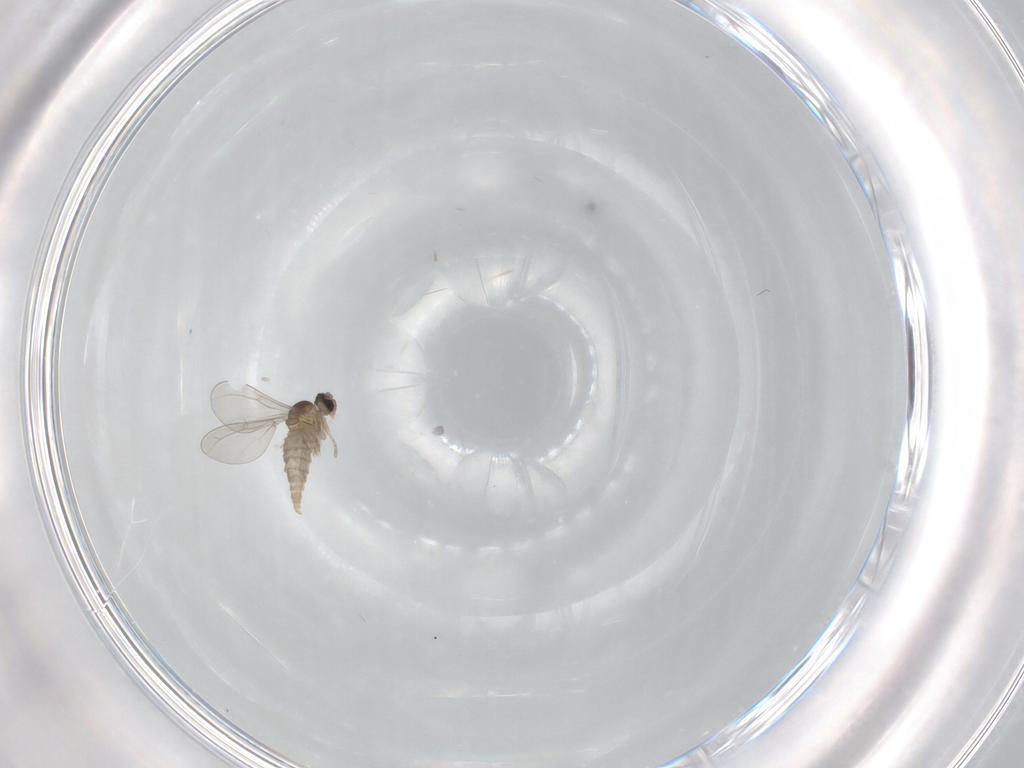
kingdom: Animalia
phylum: Arthropoda
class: Insecta
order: Diptera
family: Cecidomyiidae
